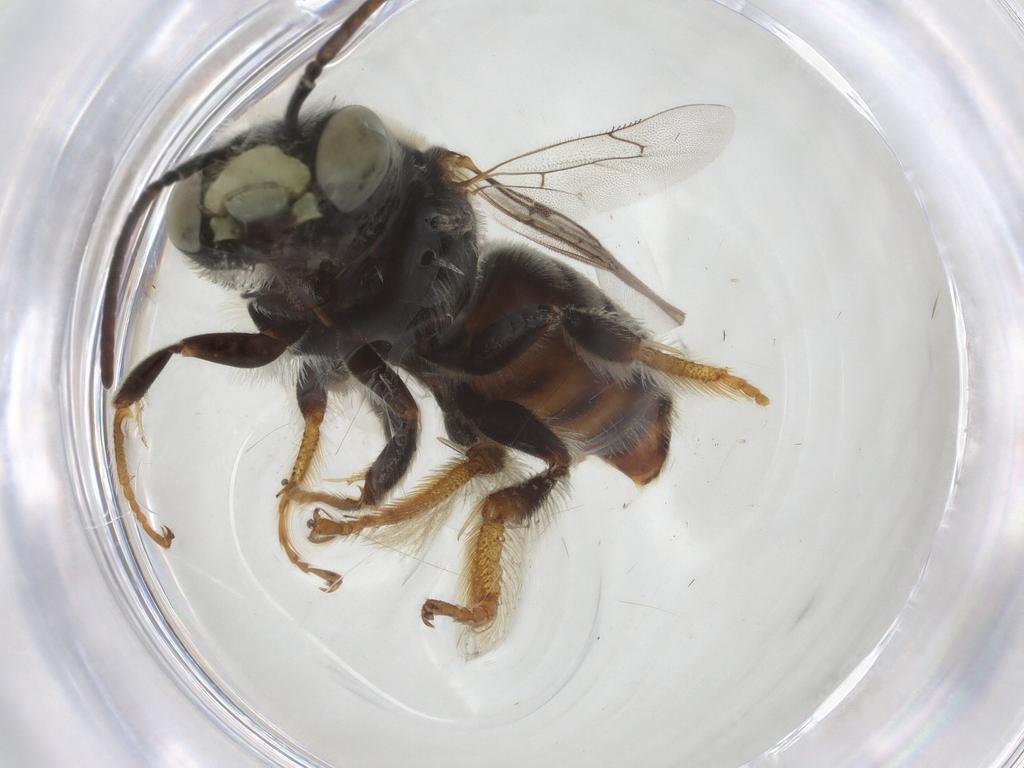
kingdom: Animalia
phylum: Arthropoda
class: Insecta
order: Hymenoptera
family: Apidae
